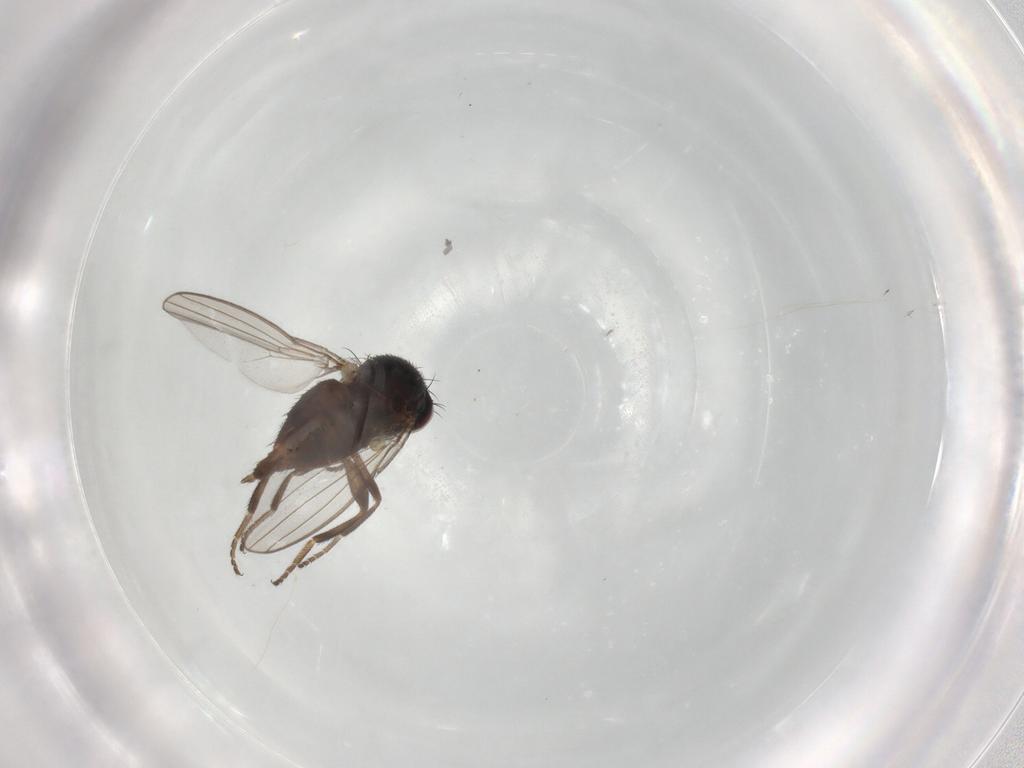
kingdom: Animalia
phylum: Arthropoda
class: Insecta
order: Diptera
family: Milichiidae
